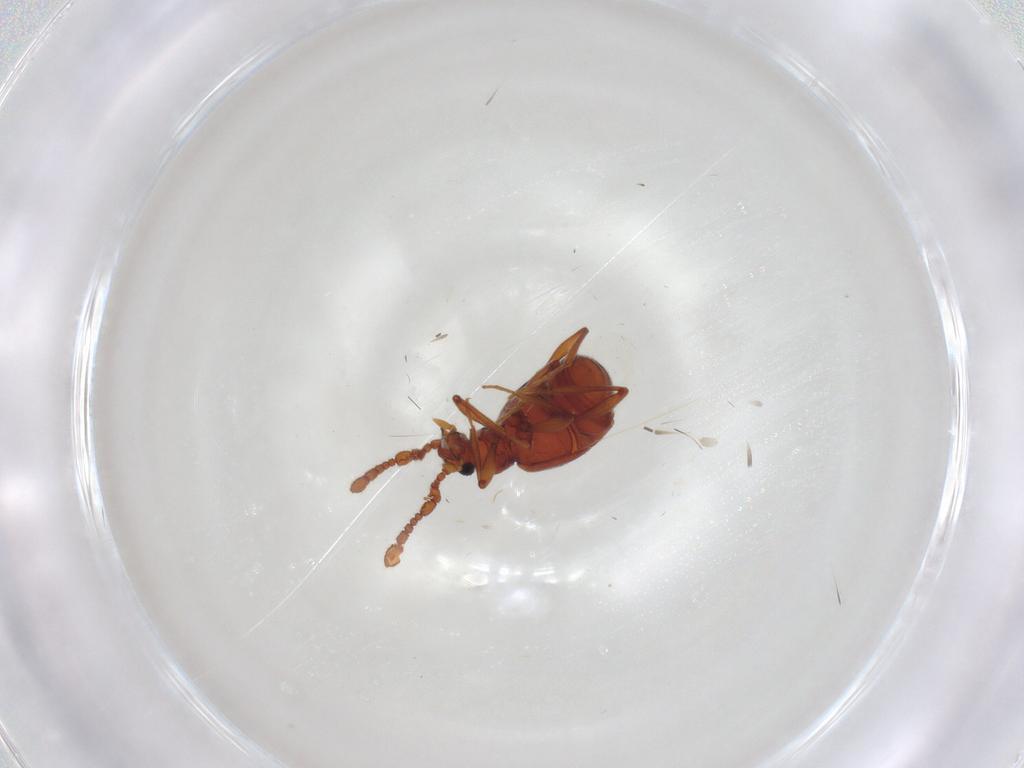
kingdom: Animalia
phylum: Arthropoda
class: Insecta
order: Coleoptera
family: Staphylinidae
